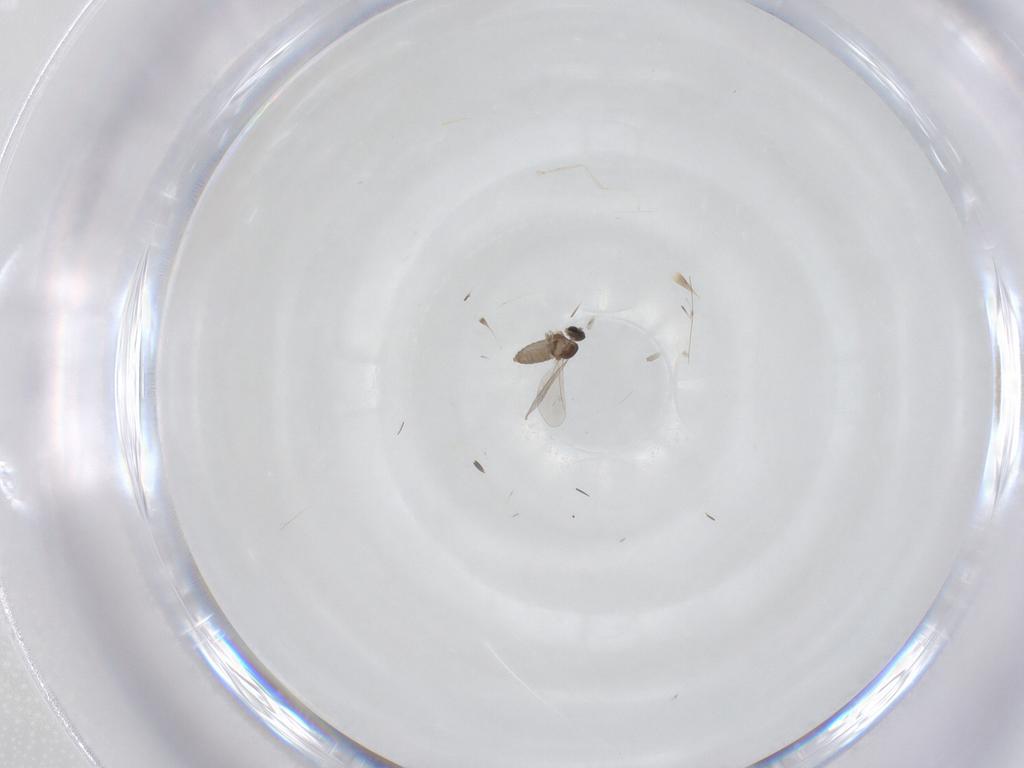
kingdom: Animalia
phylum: Arthropoda
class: Insecta
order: Diptera
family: Cecidomyiidae
